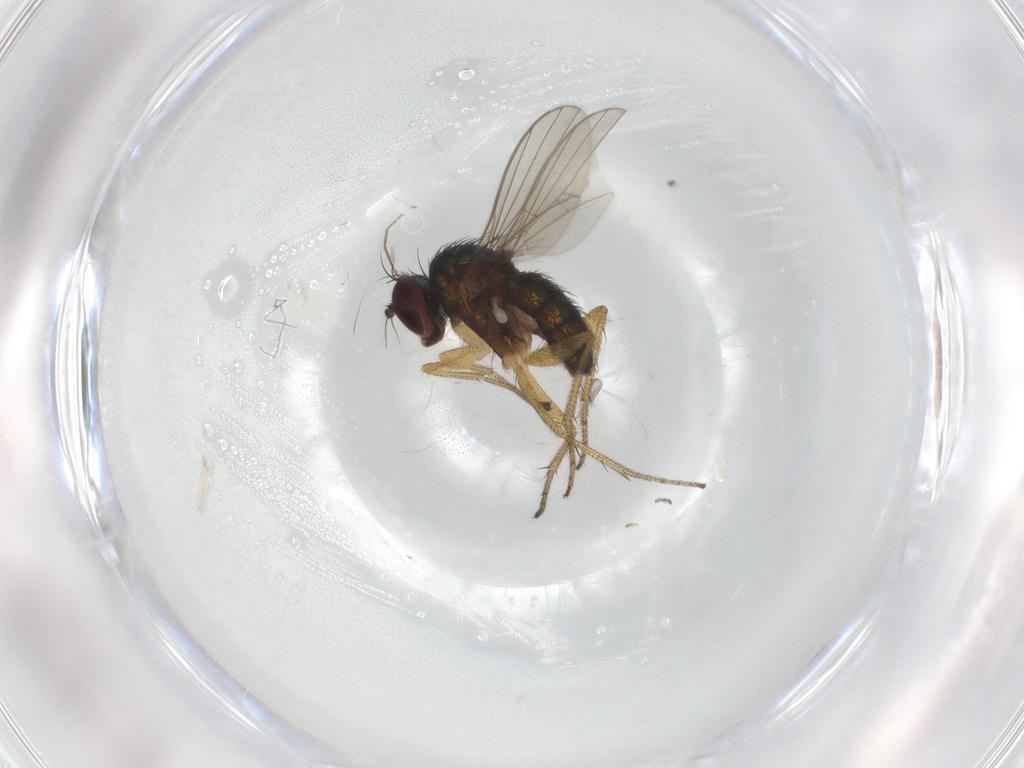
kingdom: Animalia
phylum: Arthropoda
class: Insecta
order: Diptera
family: Chironomidae
